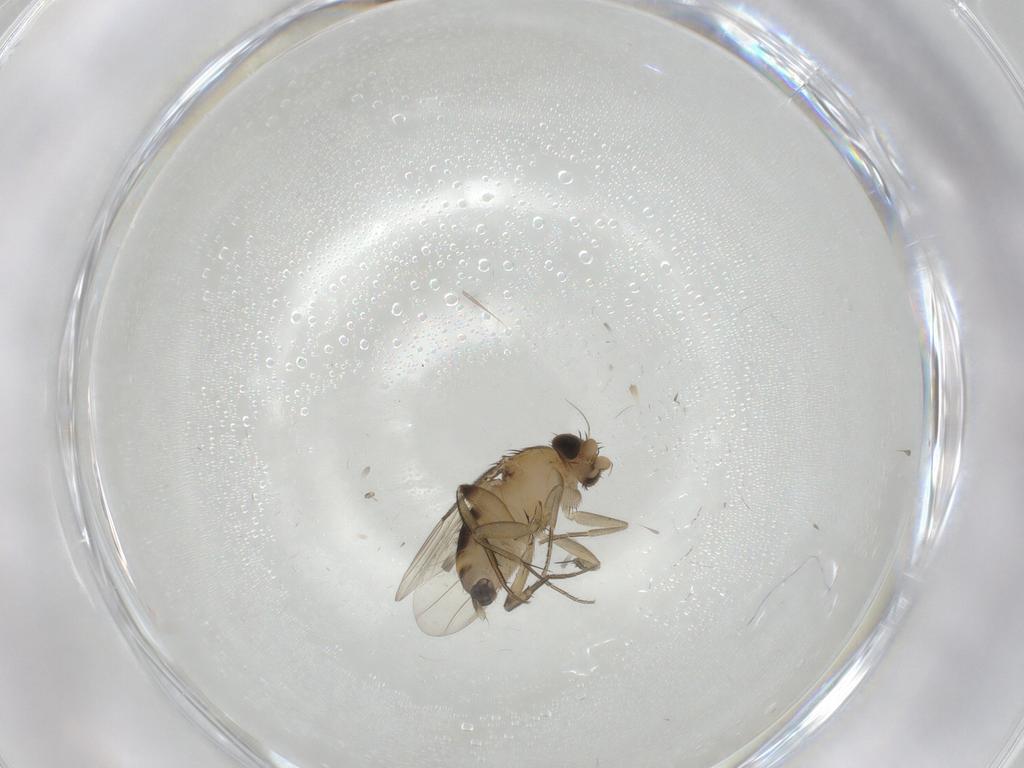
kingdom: Animalia
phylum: Arthropoda
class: Insecta
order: Diptera
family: Phoridae
